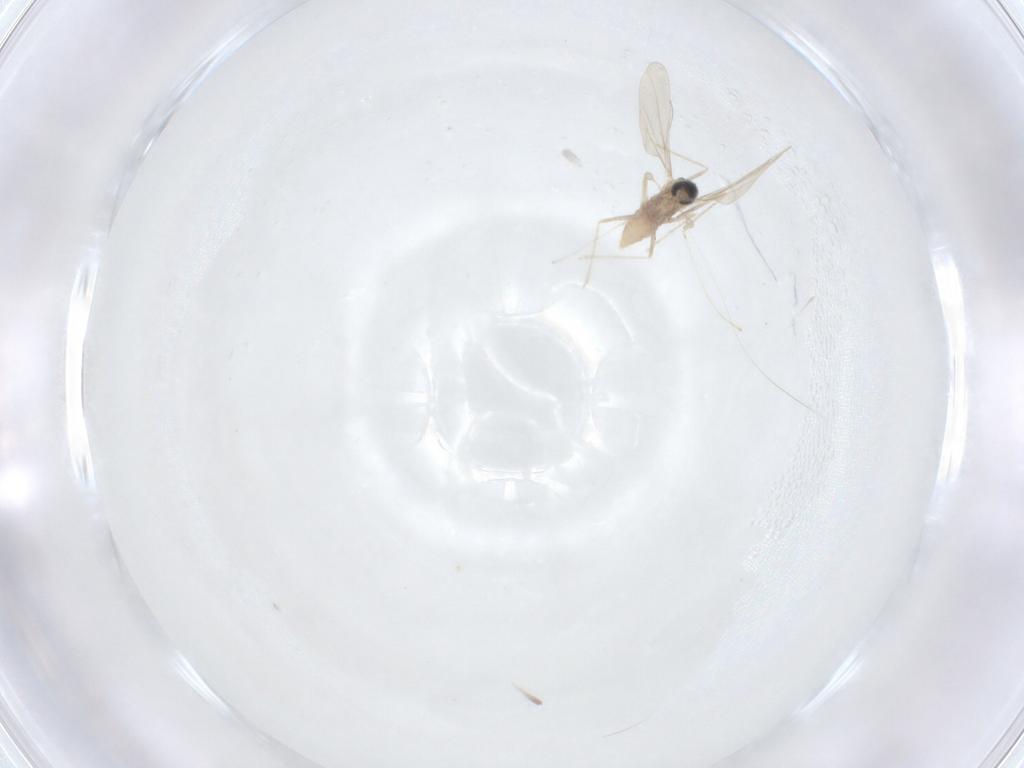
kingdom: Animalia
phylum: Arthropoda
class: Insecta
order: Diptera
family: Cecidomyiidae
